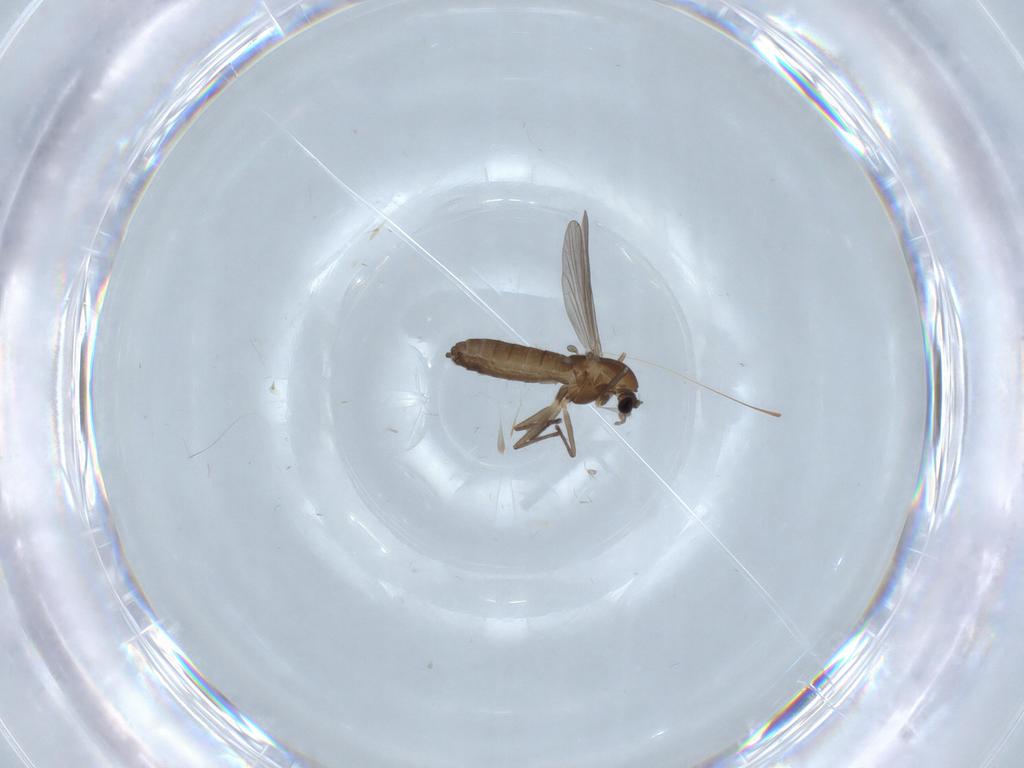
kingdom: Animalia
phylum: Arthropoda
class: Insecta
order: Diptera
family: Chironomidae
